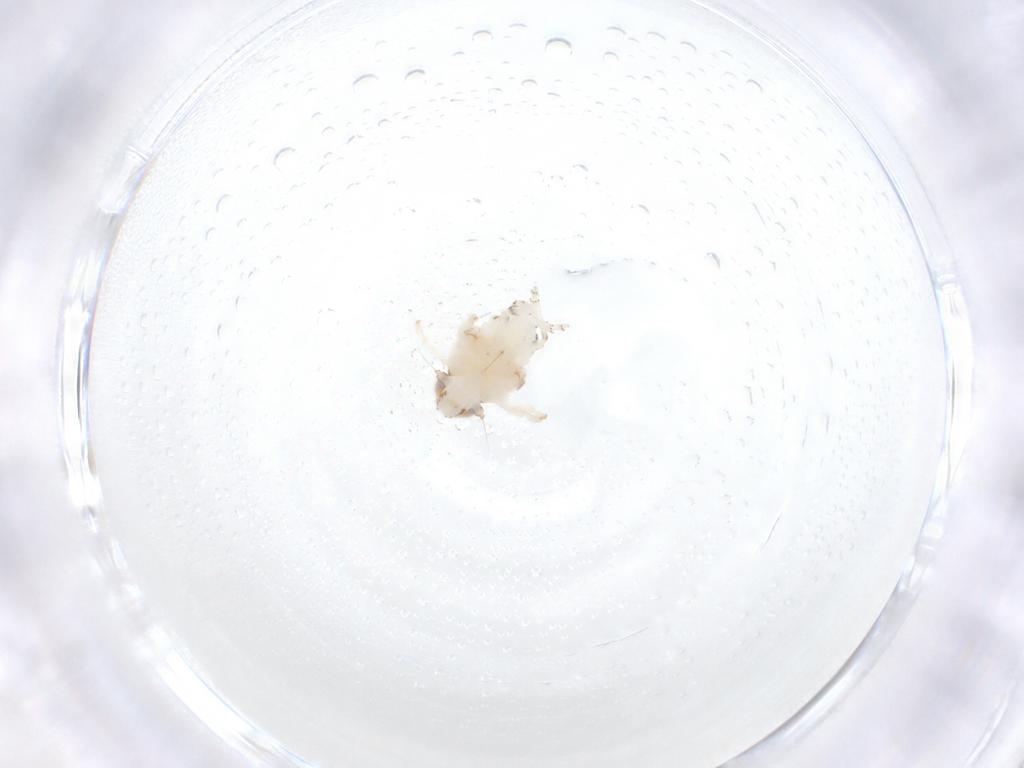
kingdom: Animalia
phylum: Arthropoda
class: Insecta
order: Hemiptera
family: Nogodinidae
